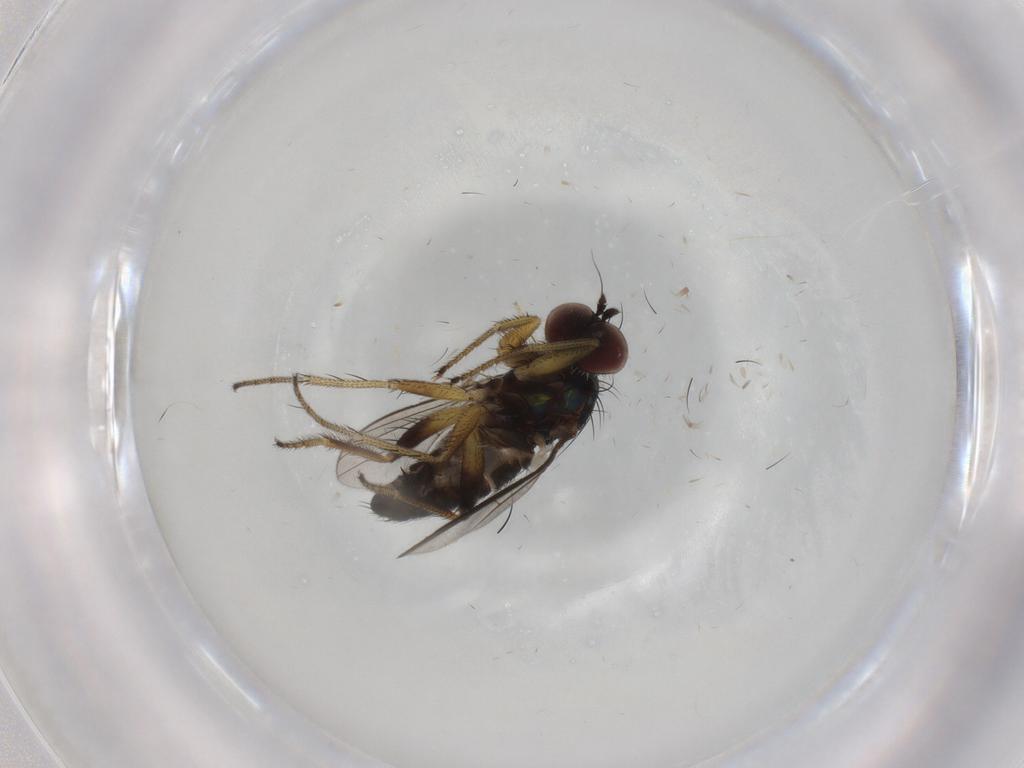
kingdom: Animalia
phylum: Arthropoda
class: Insecta
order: Diptera
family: Dolichopodidae
